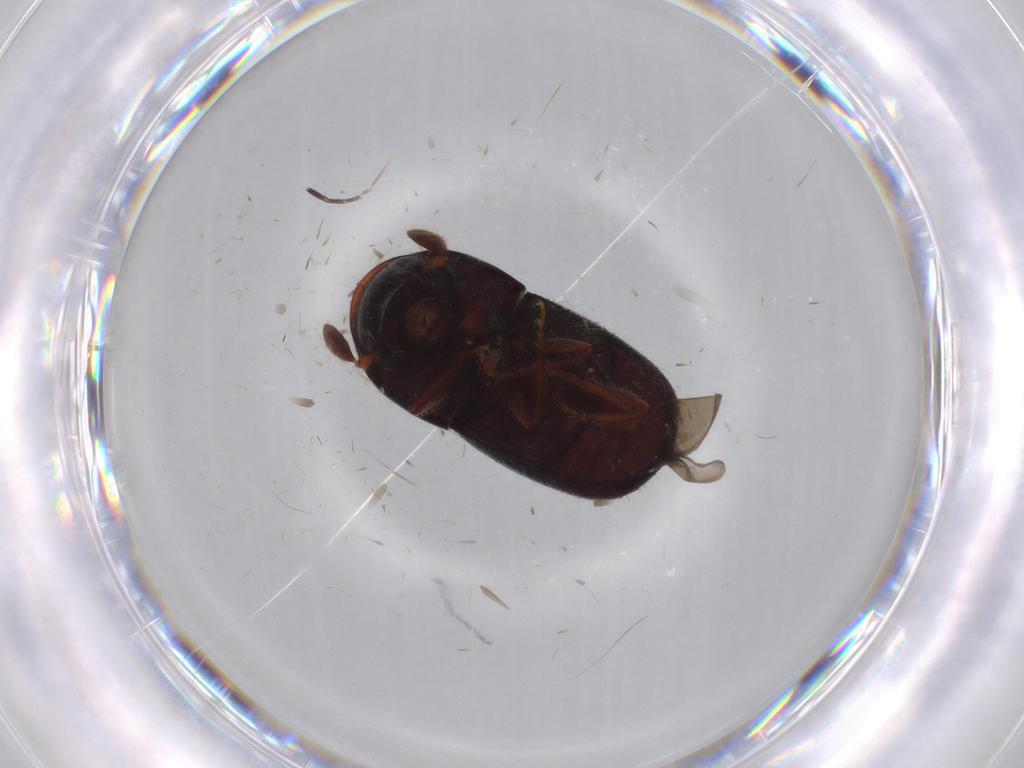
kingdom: Animalia
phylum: Arthropoda
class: Insecta
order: Coleoptera
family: Curculionidae
